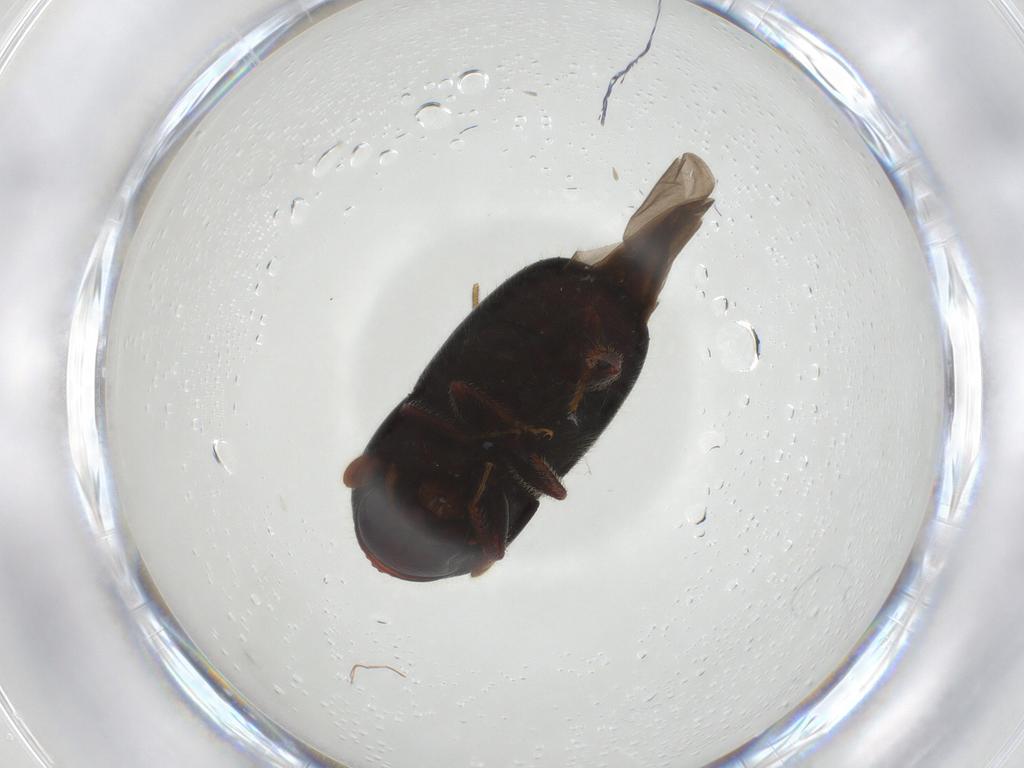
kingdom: Animalia
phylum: Arthropoda
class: Insecta
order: Coleoptera
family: Curculionidae
